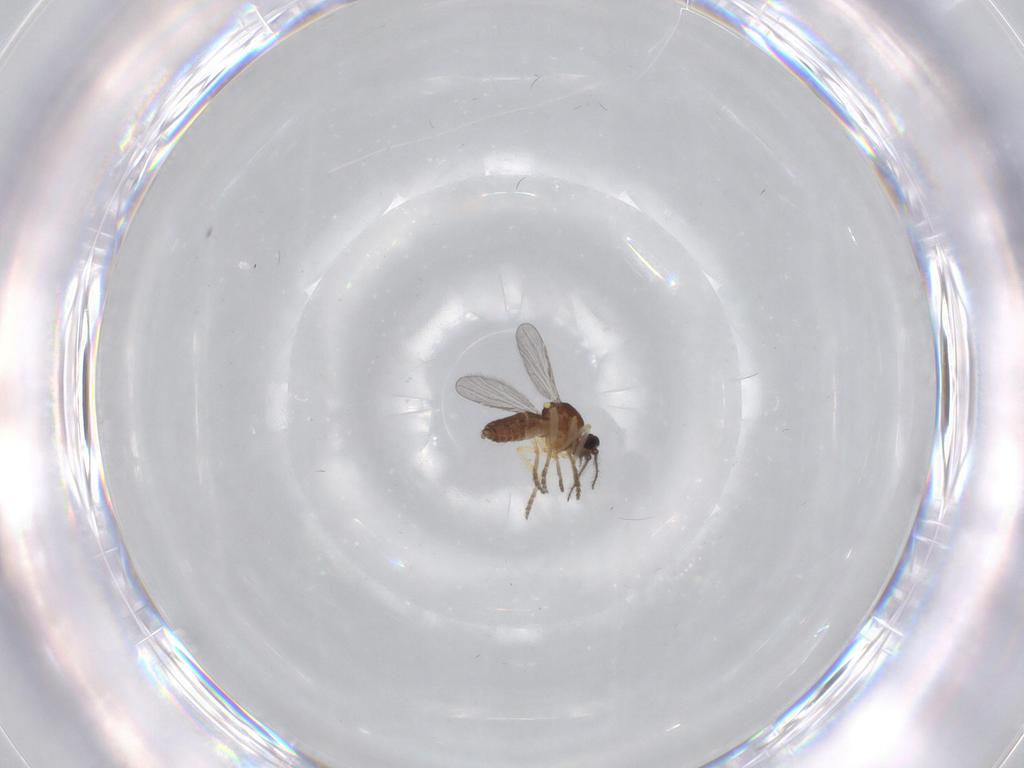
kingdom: Animalia
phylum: Arthropoda
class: Insecta
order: Diptera
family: Ceratopogonidae
